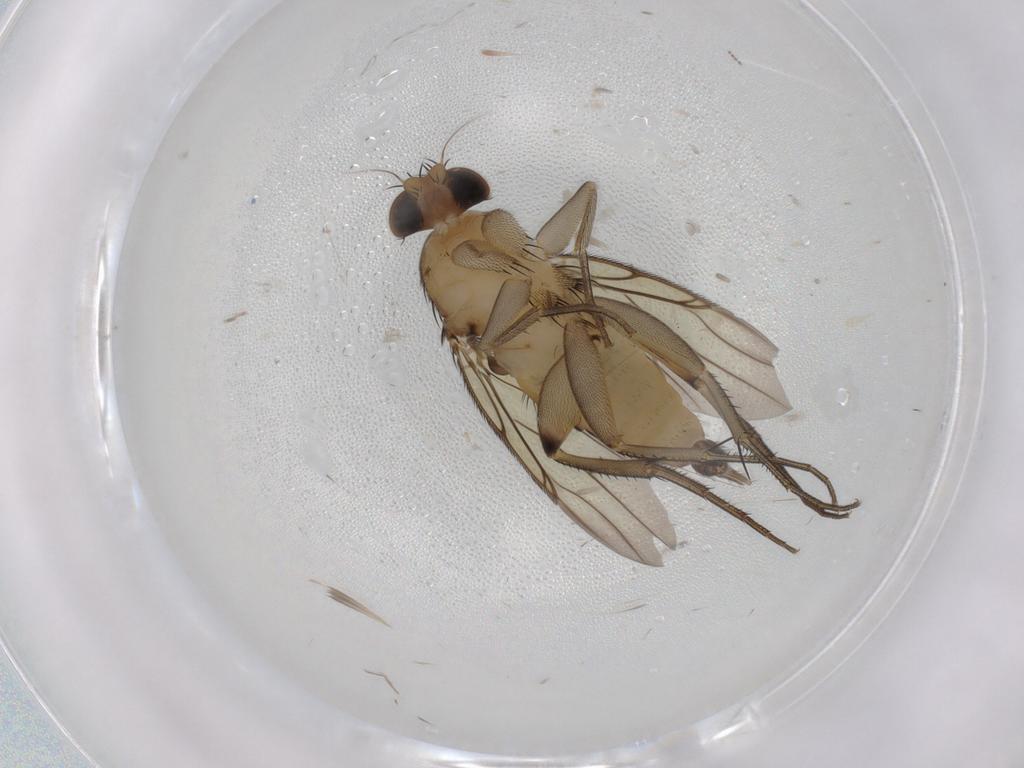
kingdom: Animalia
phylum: Arthropoda
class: Insecta
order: Diptera
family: Phoridae
